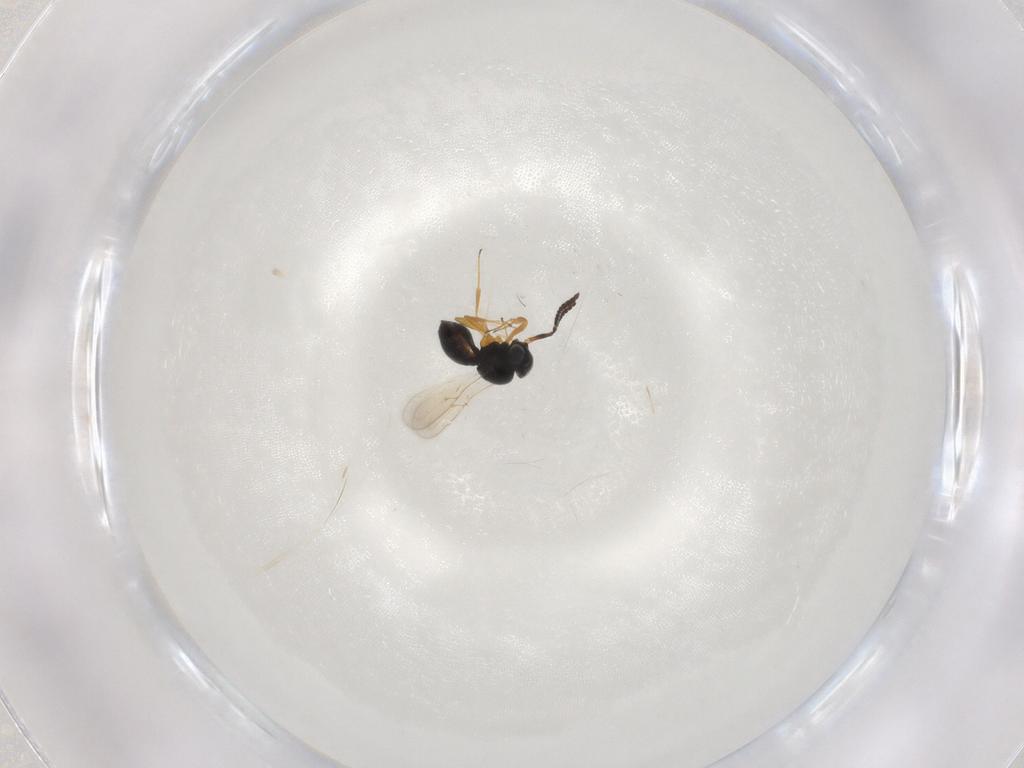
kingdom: Animalia
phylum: Arthropoda
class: Insecta
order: Hymenoptera
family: Scelionidae
